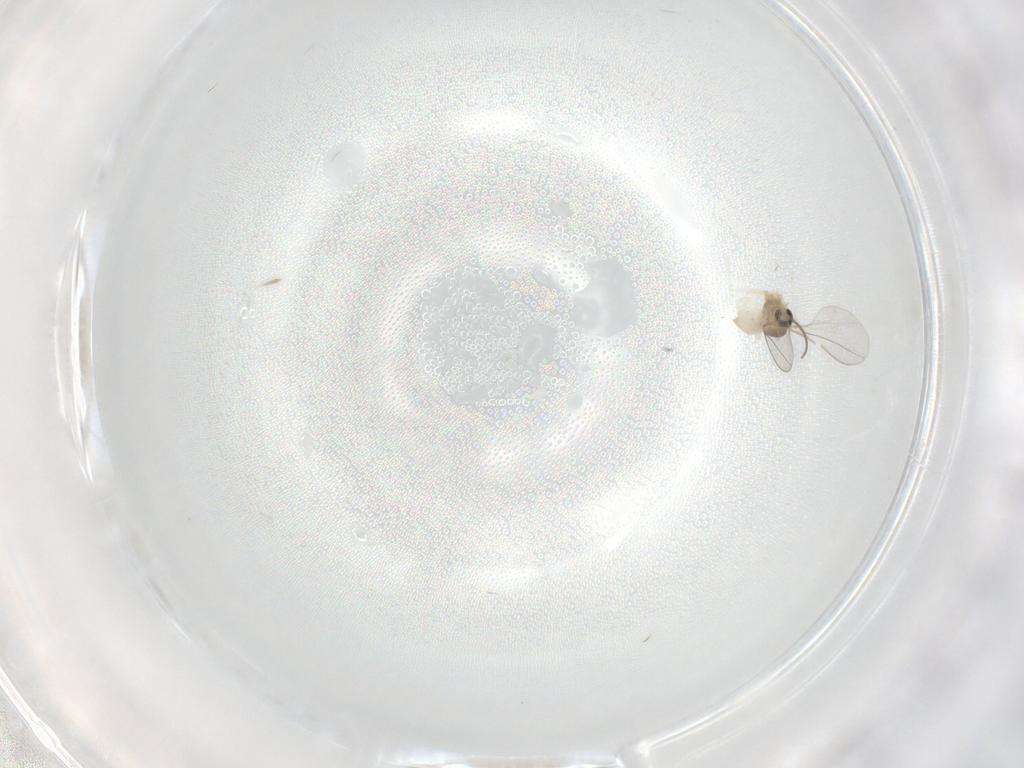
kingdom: Animalia
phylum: Arthropoda
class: Insecta
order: Diptera
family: Cecidomyiidae
